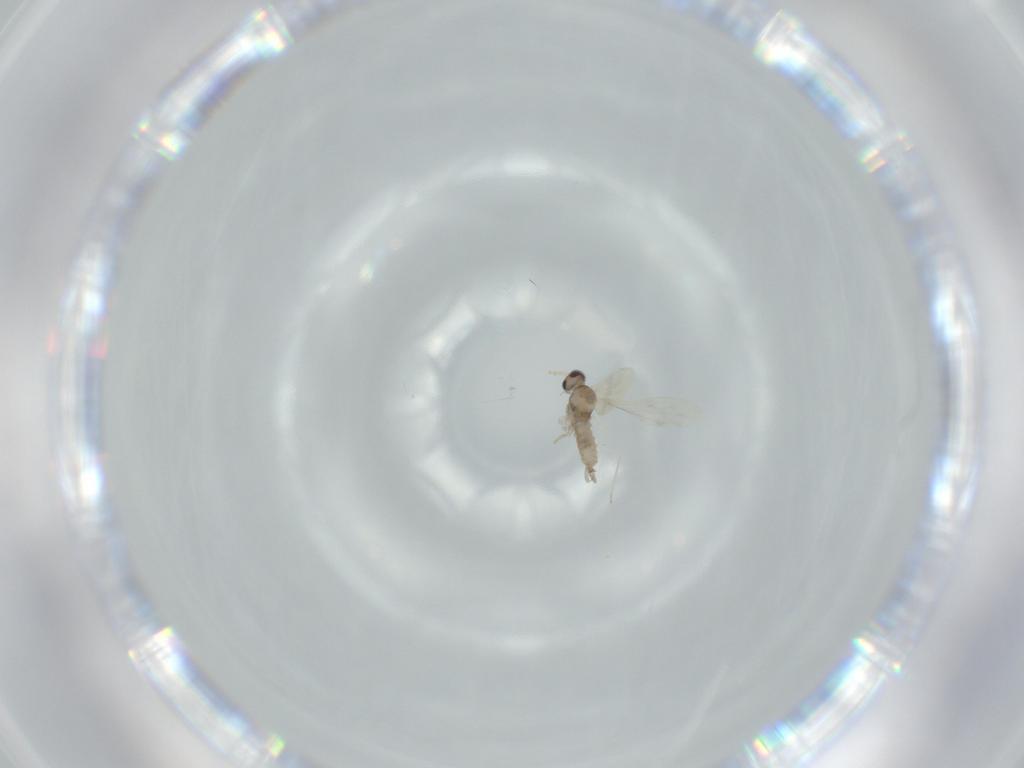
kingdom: Animalia
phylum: Arthropoda
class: Insecta
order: Diptera
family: Cecidomyiidae
